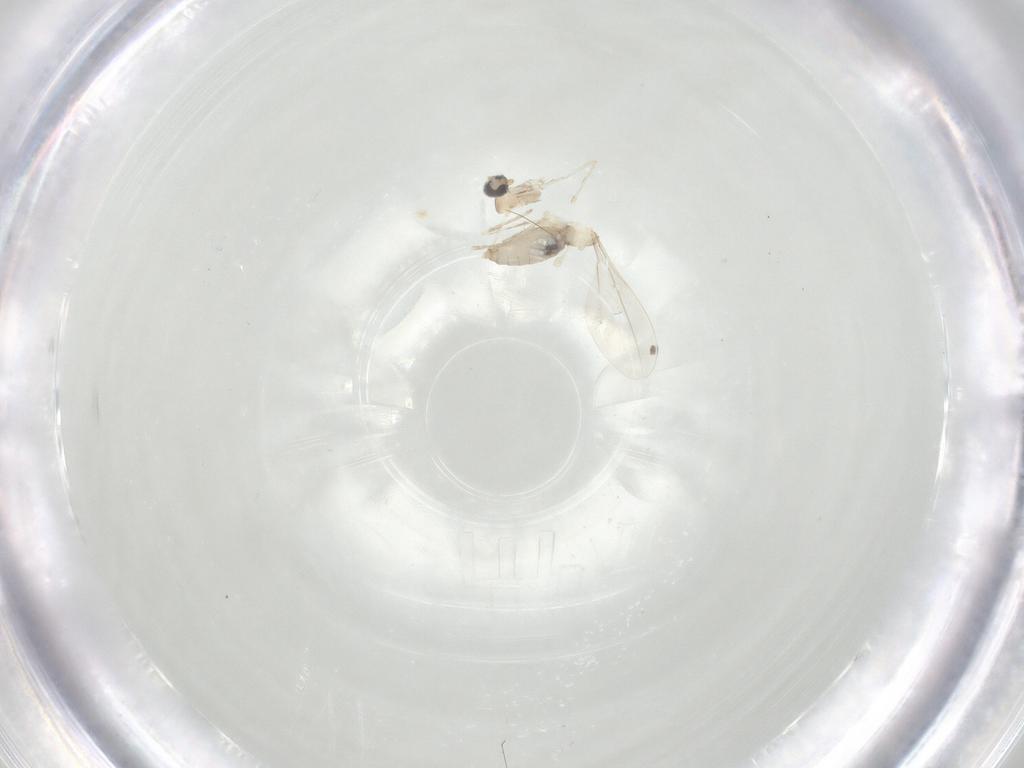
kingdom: Animalia
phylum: Arthropoda
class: Insecta
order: Diptera
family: Cecidomyiidae
